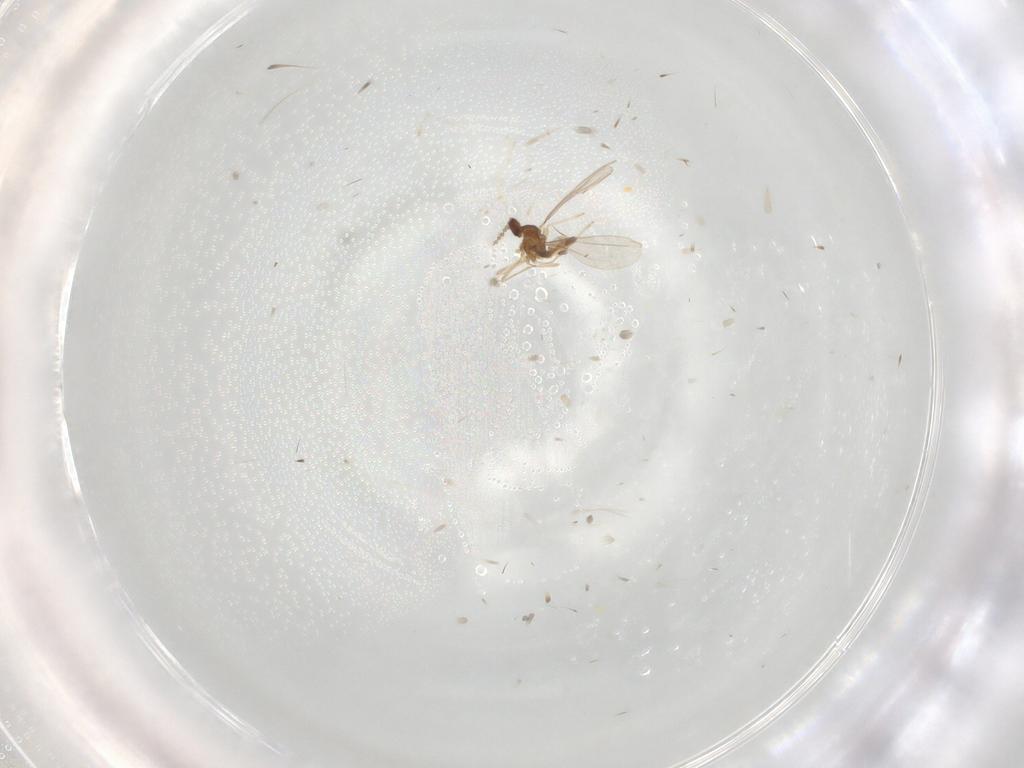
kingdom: Animalia
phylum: Arthropoda
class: Insecta
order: Diptera
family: Cecidomyiidae
